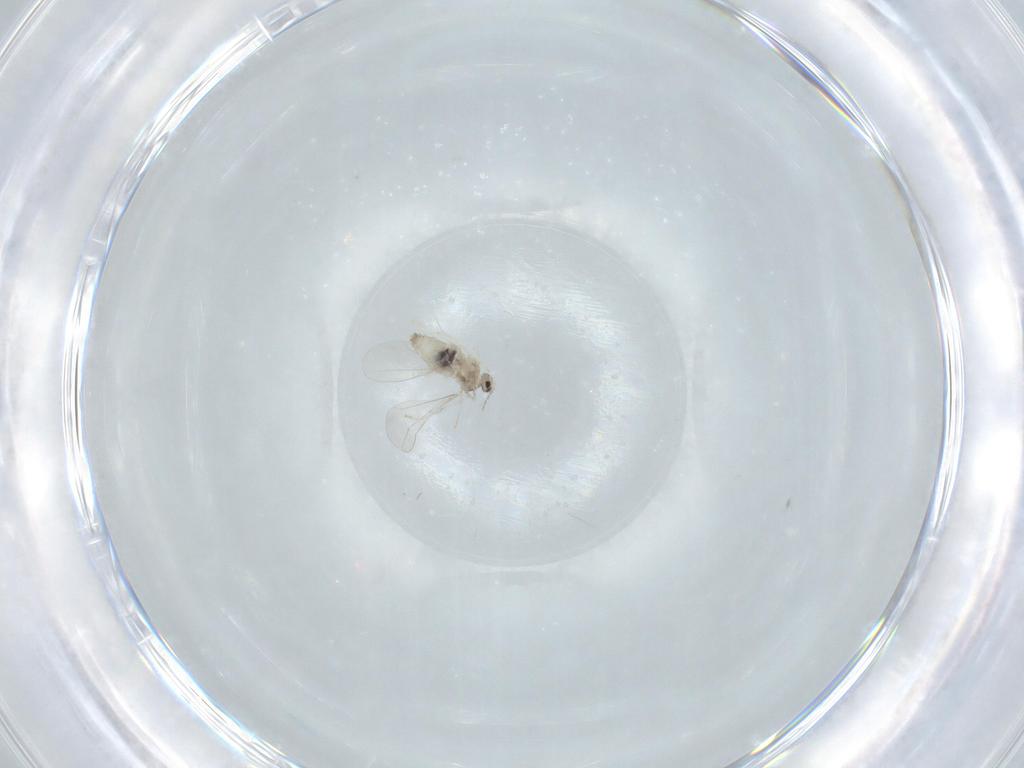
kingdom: Animalia
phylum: Arthropoda
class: Insecta
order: Diptera
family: Cecidomyiidae
